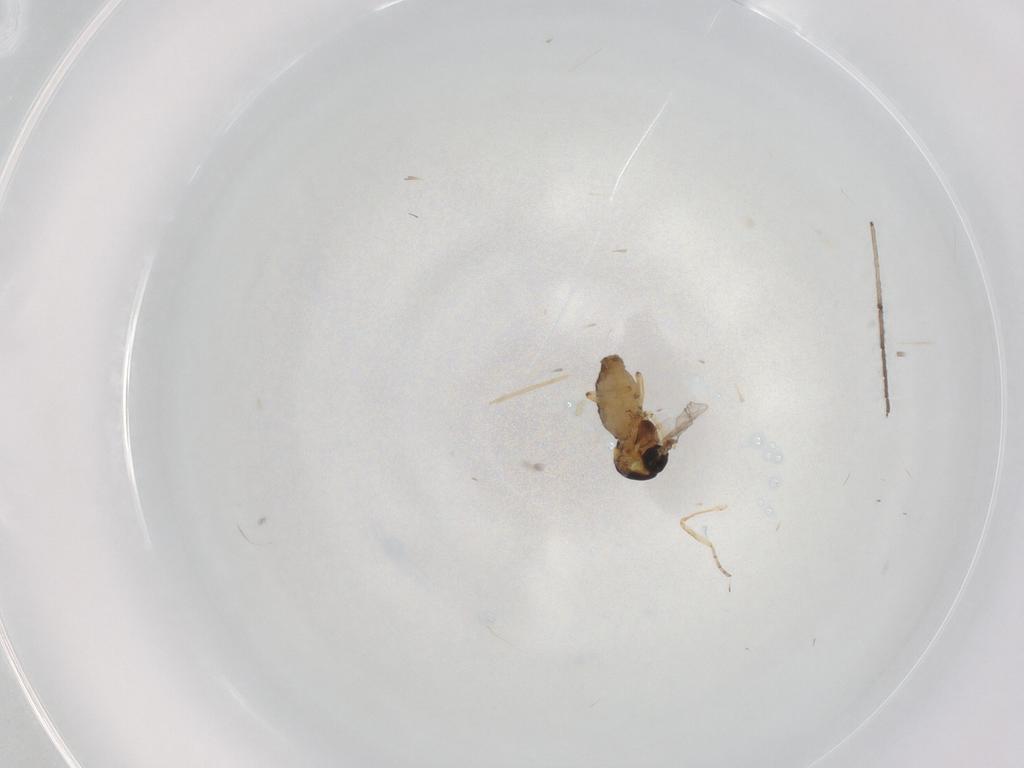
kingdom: Animalia
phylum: Arthropoda
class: Insecta
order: Diptera
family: Ceratopogonidae
